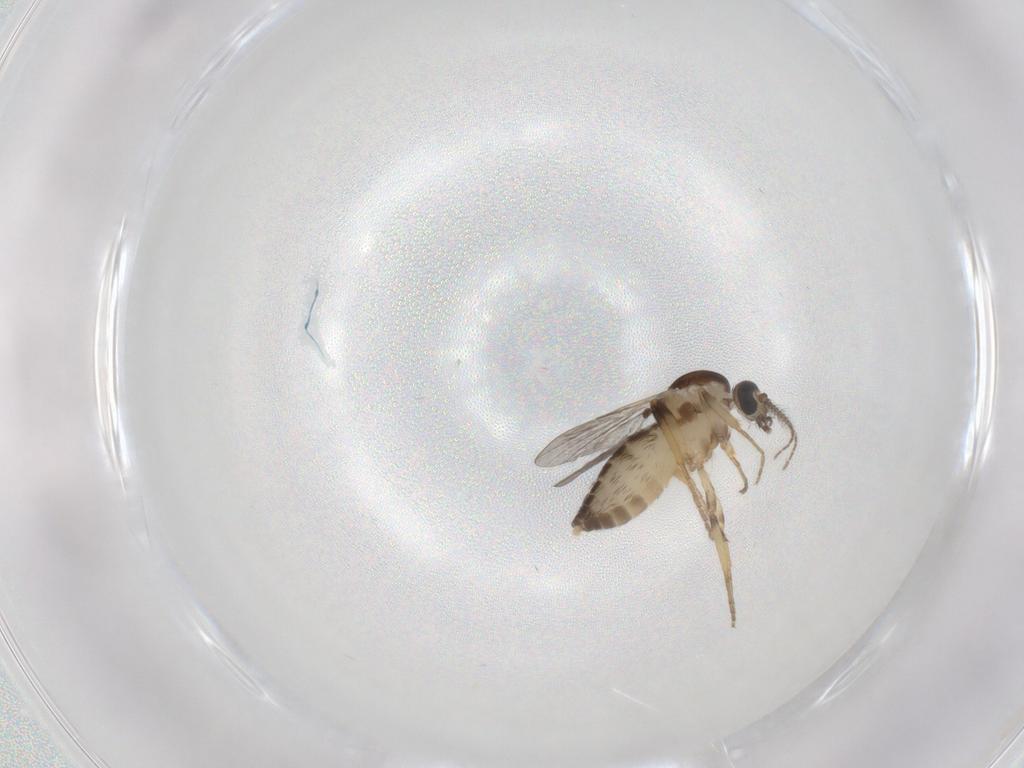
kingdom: Animalia
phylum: Arthropoda
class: Insecta
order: Diptera
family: Ceratopogonidae
